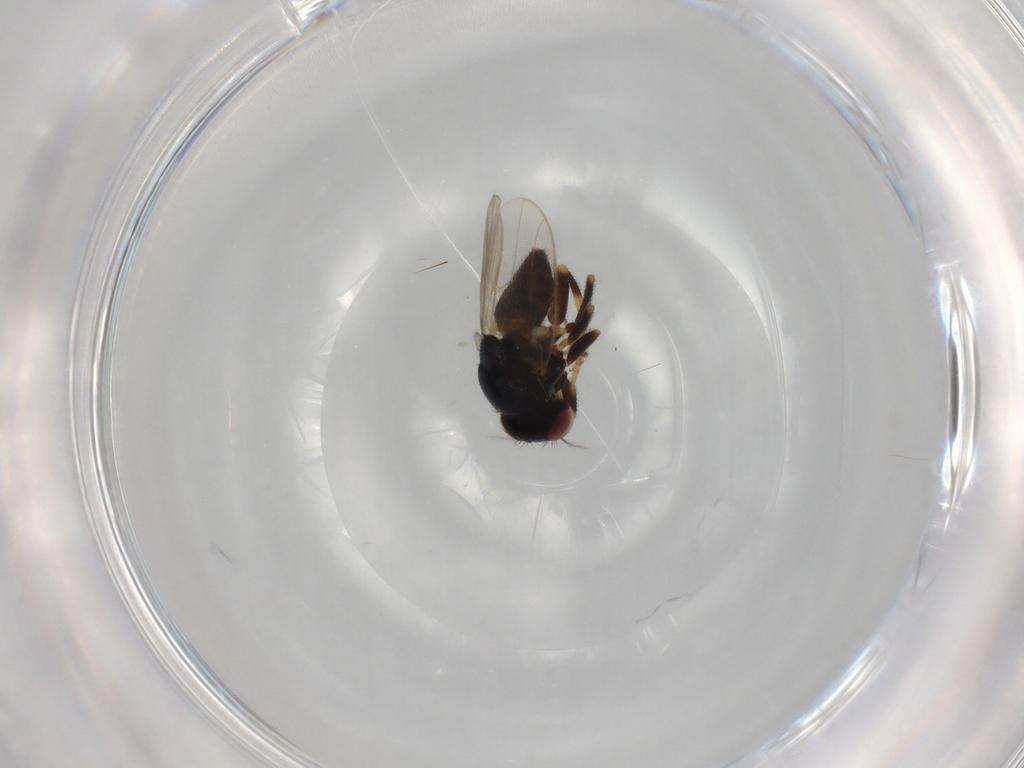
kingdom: Animalia
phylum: Arthropoda
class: Insecta
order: Diptera
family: Chloropidae
